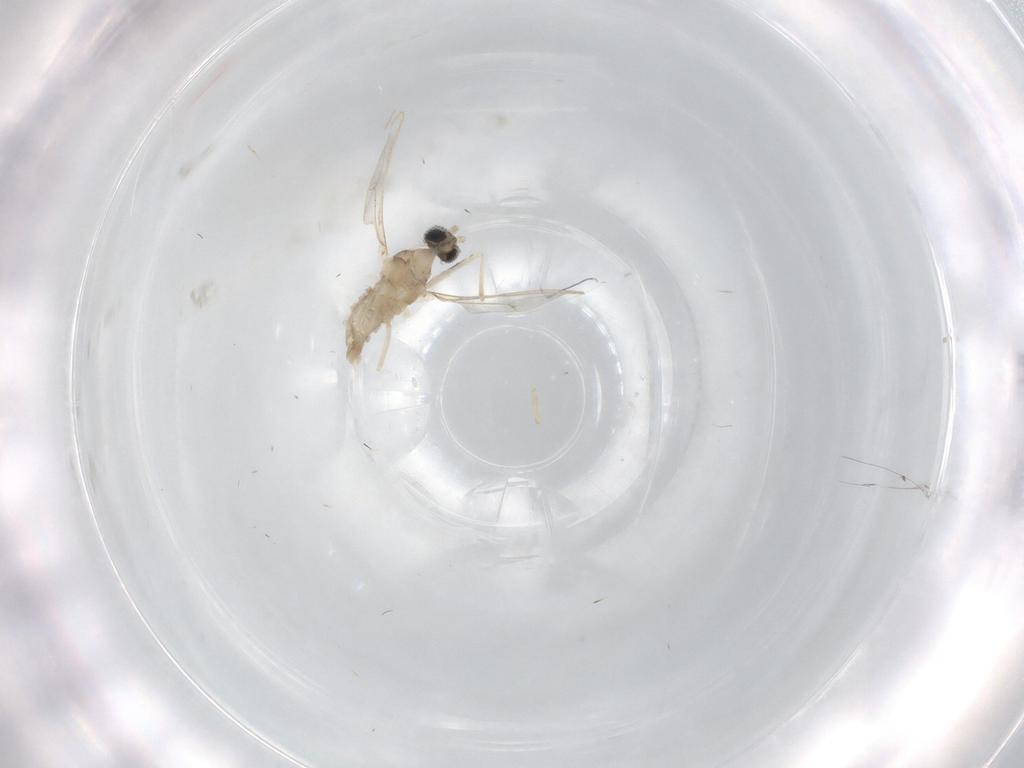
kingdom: Animalia
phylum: Arthropoda
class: Insecta
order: Diptera
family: Cecidomyiidae
